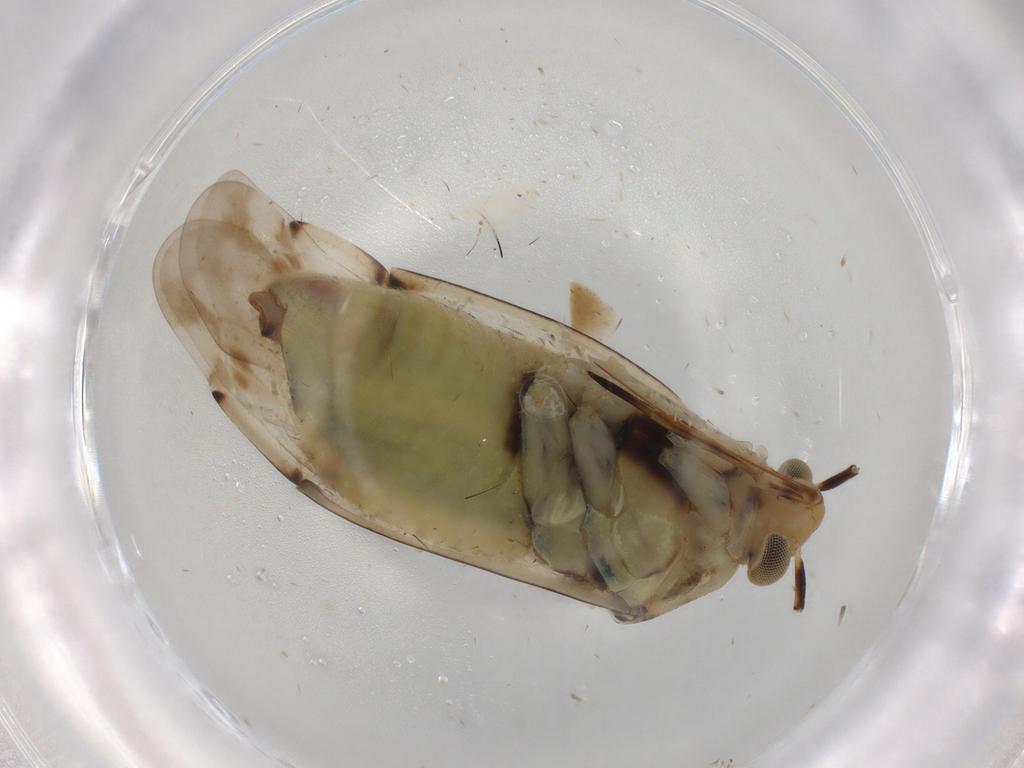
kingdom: Animalia
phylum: Arthropoda
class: Insecta
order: Hemiptera
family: Miridae
